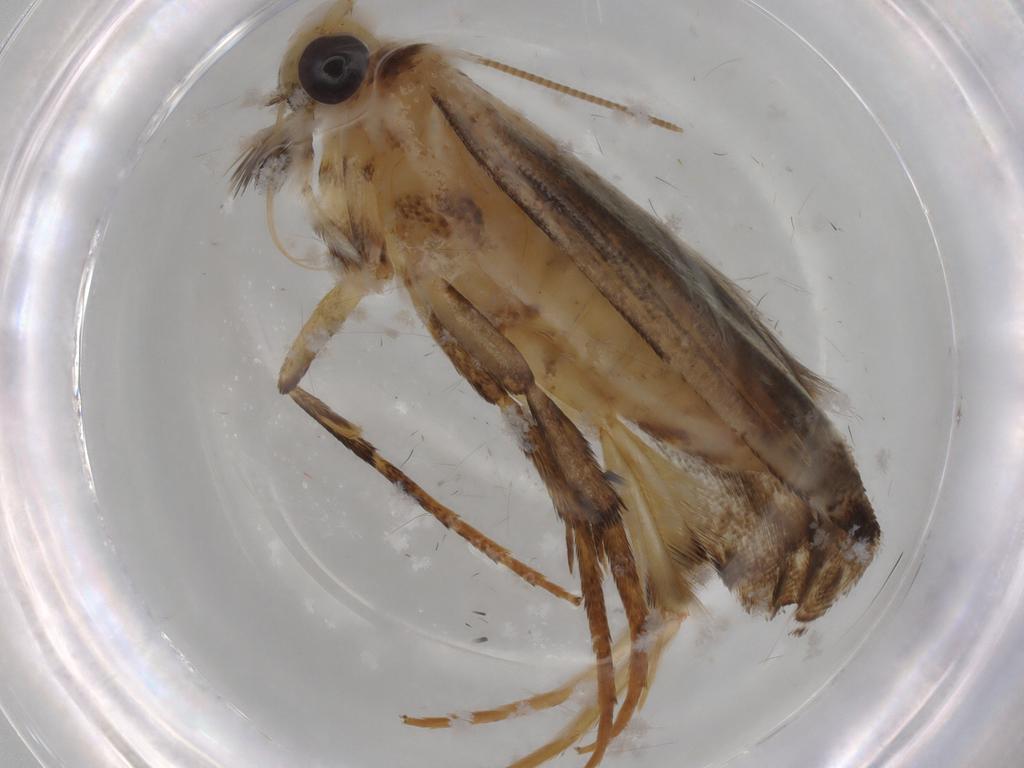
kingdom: Animalia
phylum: Arthropoda
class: Insecta
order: Lepidoptera
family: Gracillariidae
